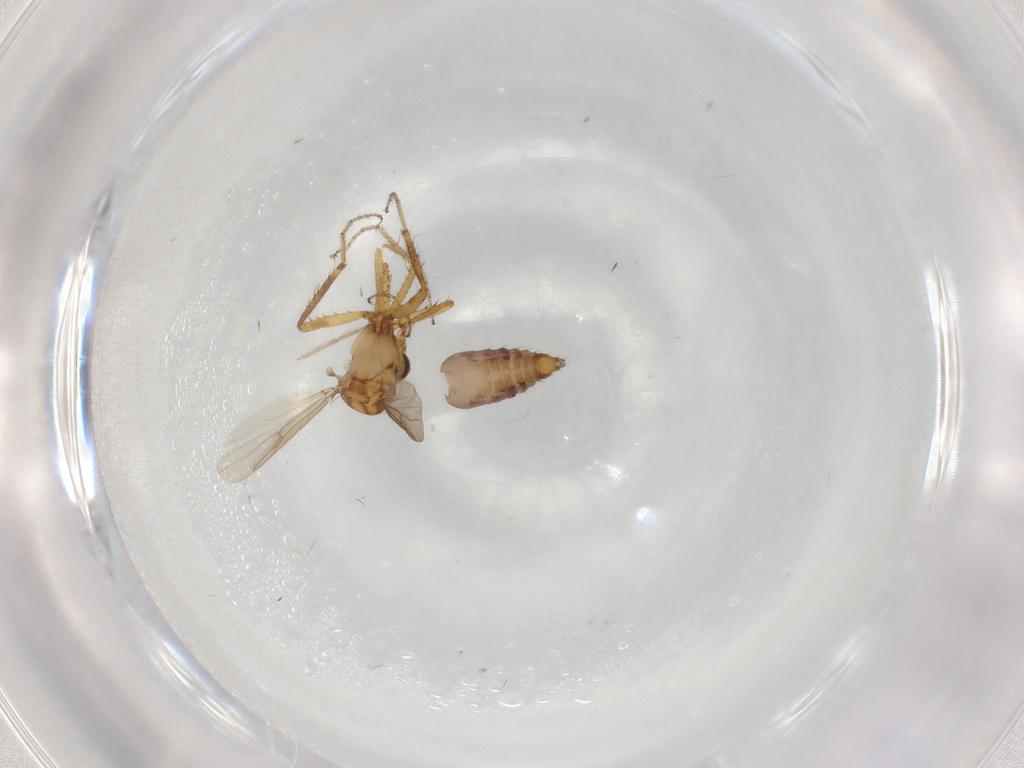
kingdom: Animalia
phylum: Arthropoda
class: Insecta
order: Diptera
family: Chironomidae
